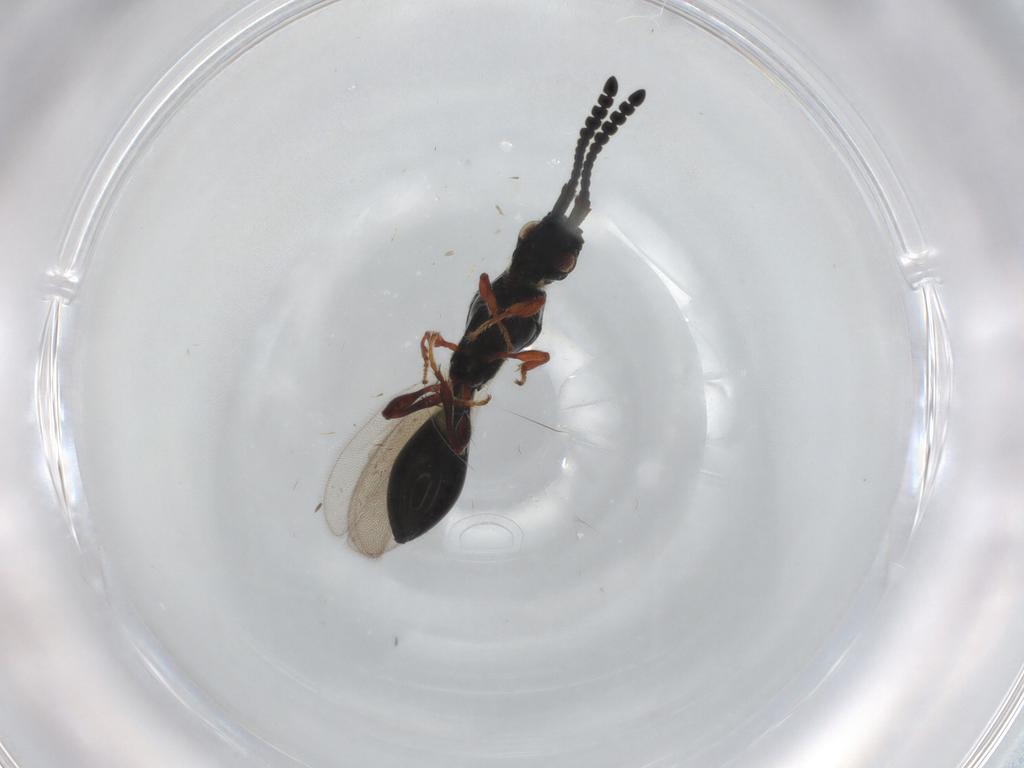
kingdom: Animalia
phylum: Arthropoda
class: Insecta
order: Hymenoptera
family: Diapriidae
